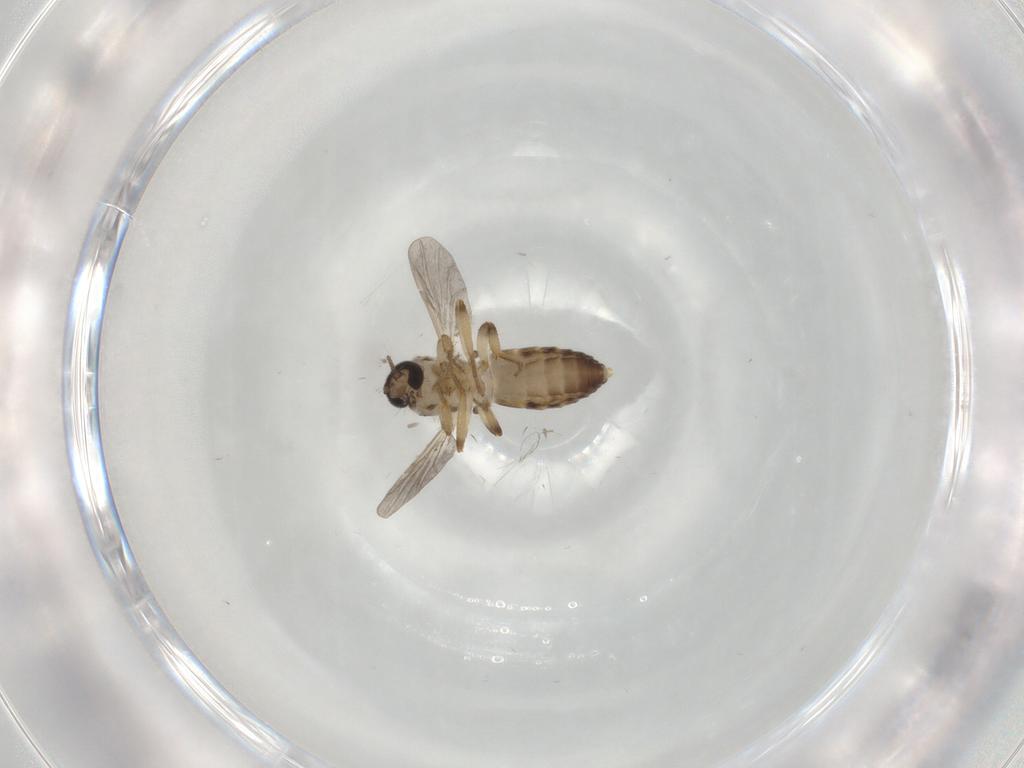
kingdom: Animalia
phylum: Arthropoda
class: Insecta
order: Diptera
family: Ceratopogonidae
